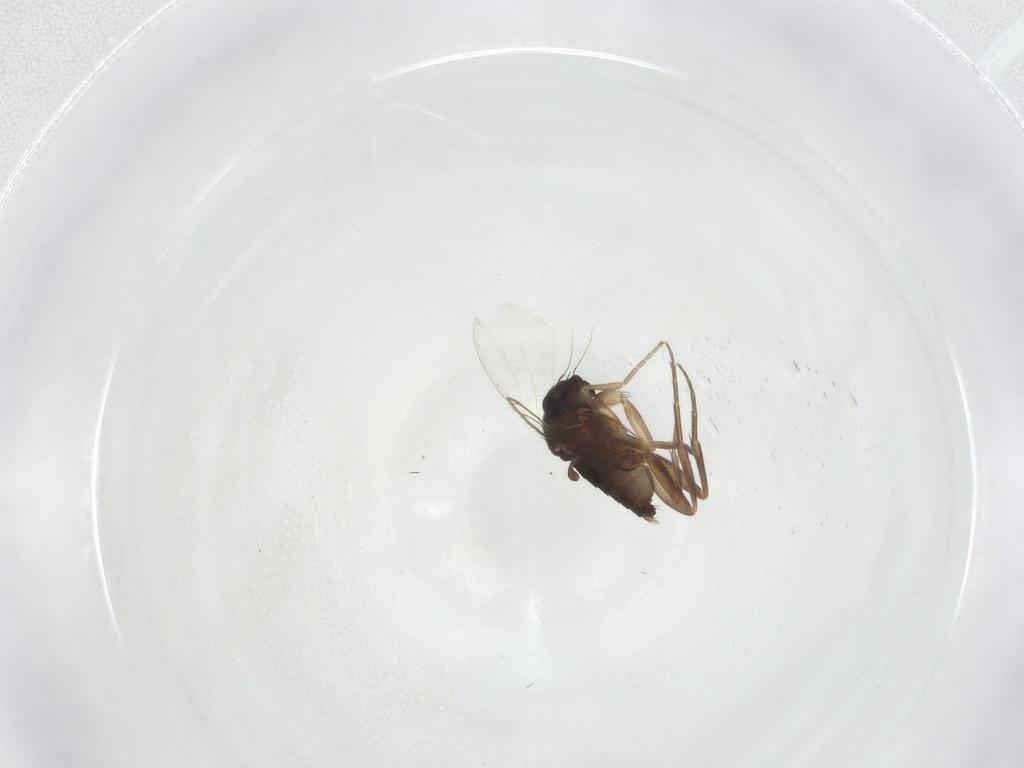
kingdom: Animalia
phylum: Arthropoda
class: Insecta
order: Diptera
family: Phoridae
